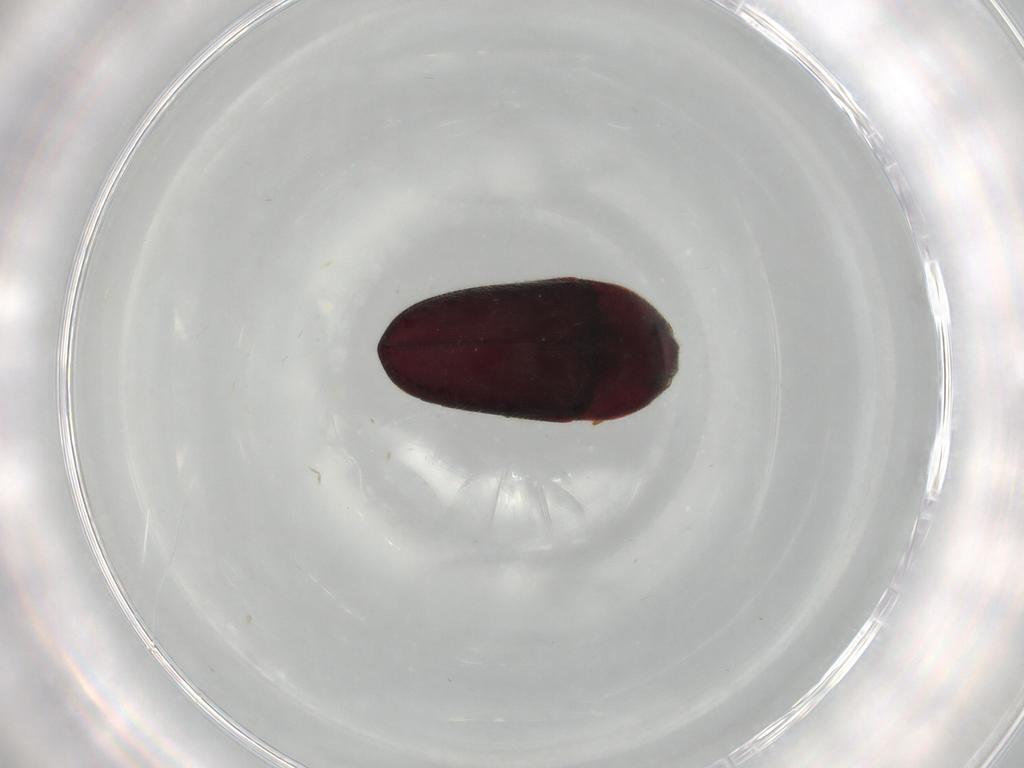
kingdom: Animalia
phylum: Arthropoda
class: Insecta
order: Coleoptera
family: Throscidae
